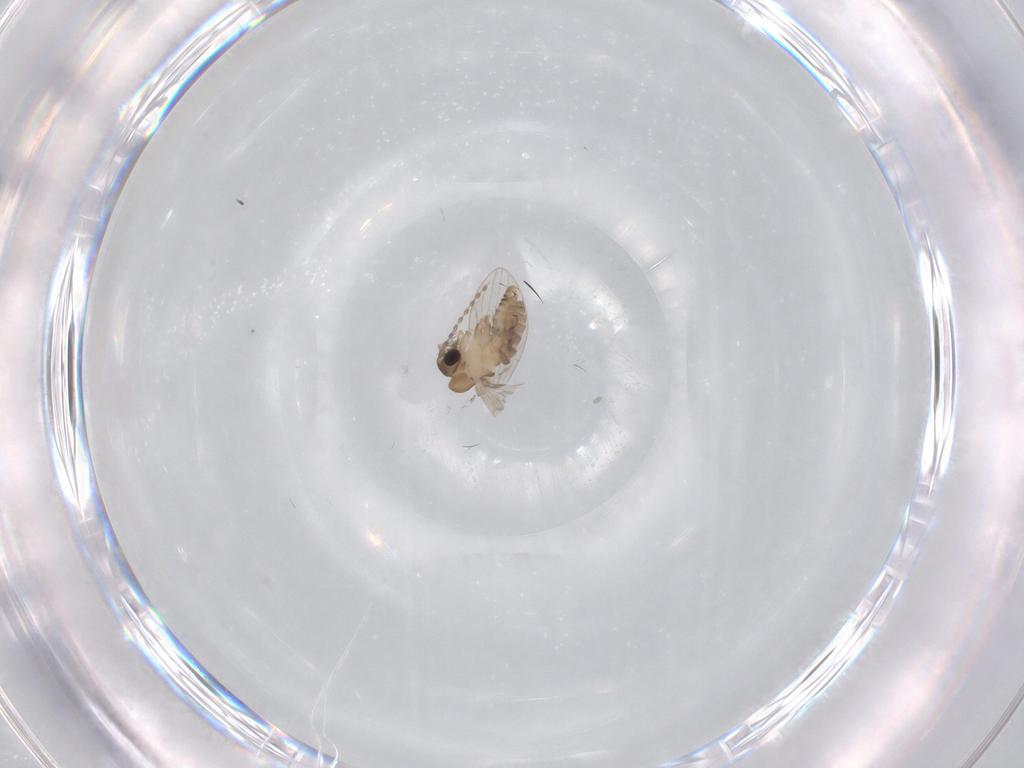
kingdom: Animalia
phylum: Arthropoda
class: Insecta
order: Diptera
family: Psychodidae
